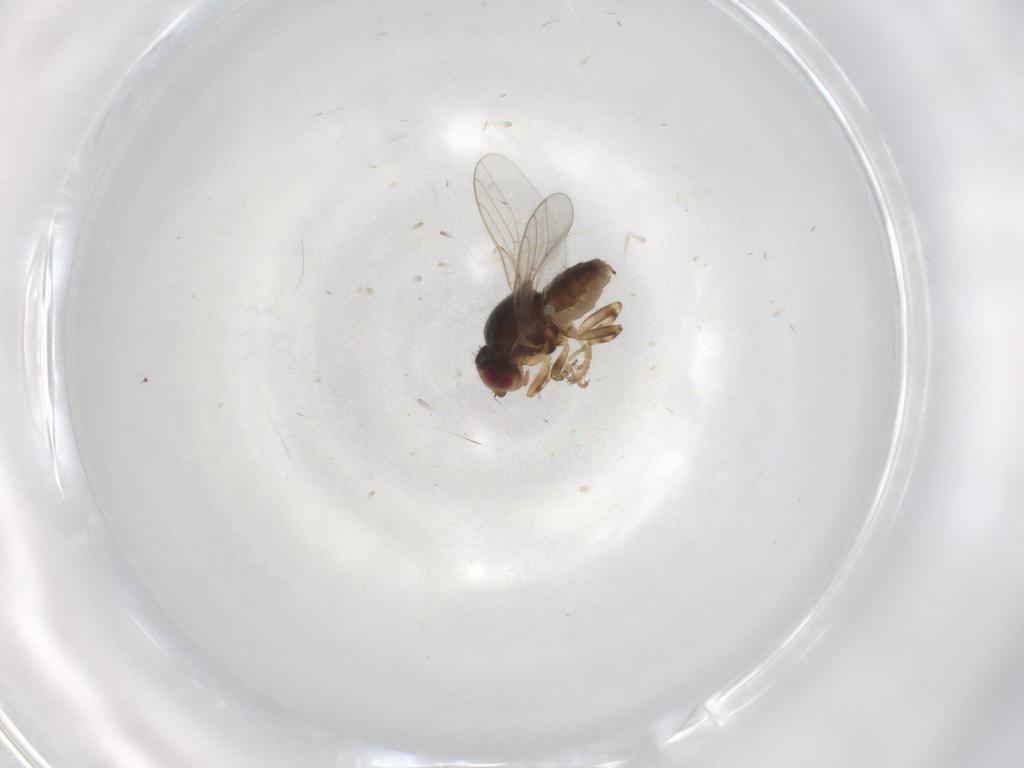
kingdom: Animalia
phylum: Arthropoda
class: Insecta
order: Diptera
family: Chloropidae
